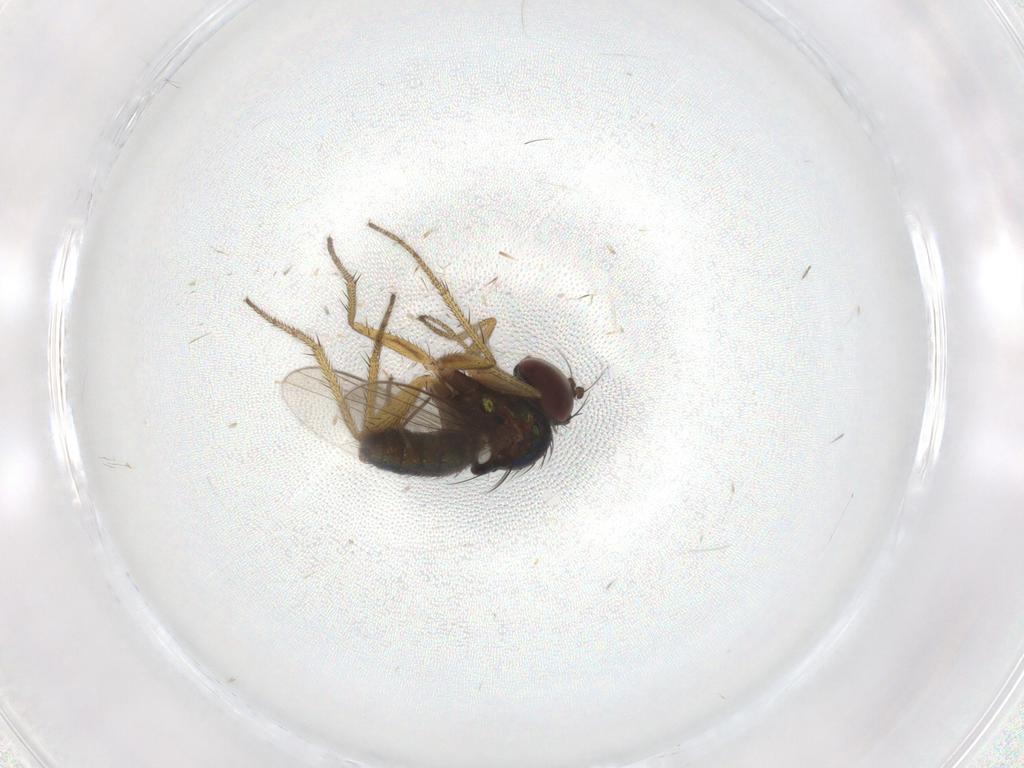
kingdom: Animalia
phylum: Arthropoda
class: Insecta
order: Diptera
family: Chironomidae
